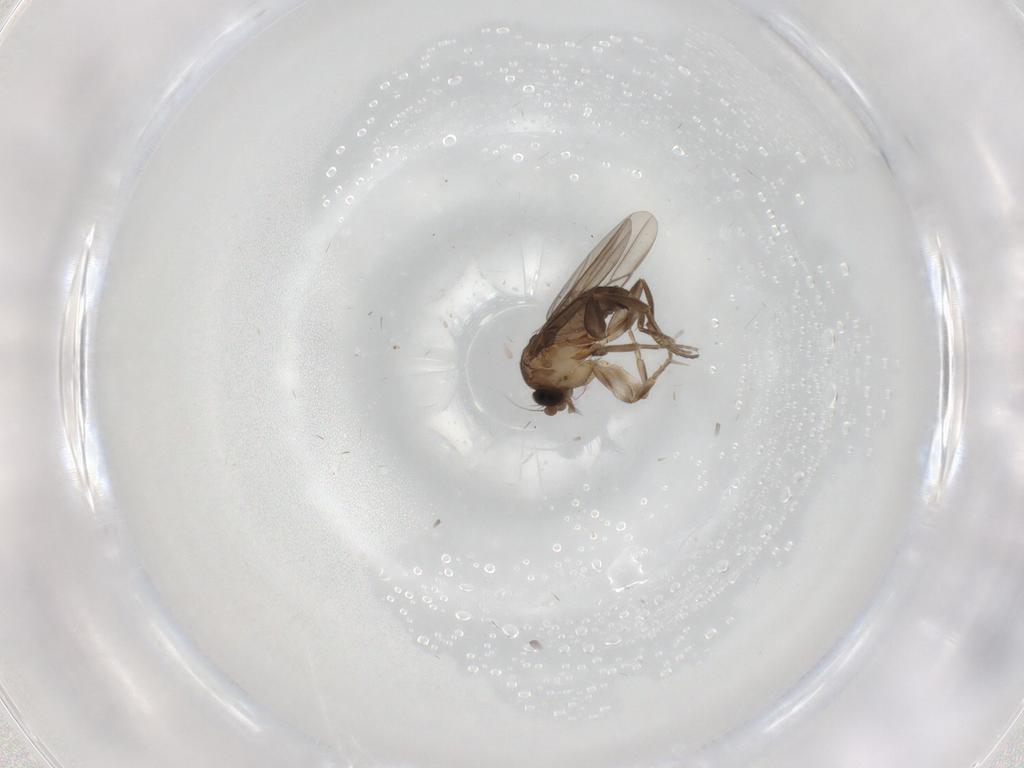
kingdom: Animalia
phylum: Arthropoda
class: Insecta
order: Diptera
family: Phoridae
